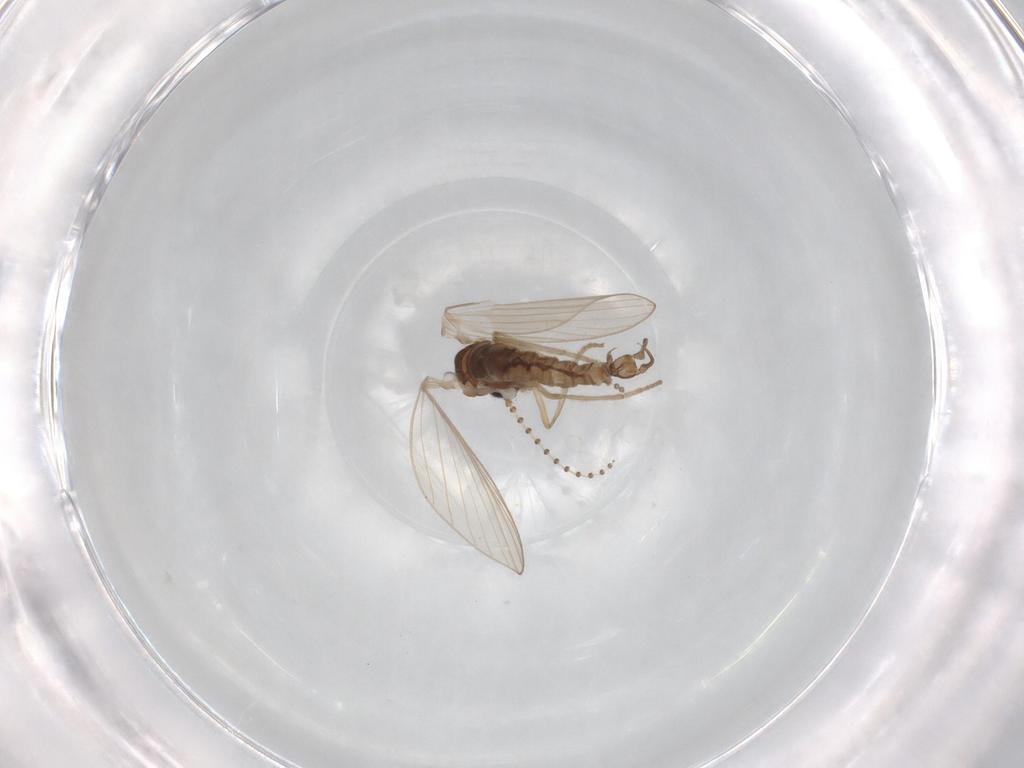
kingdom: Animalia
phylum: Arthropoda
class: Insecta
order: Diptera
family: Psychodidae
